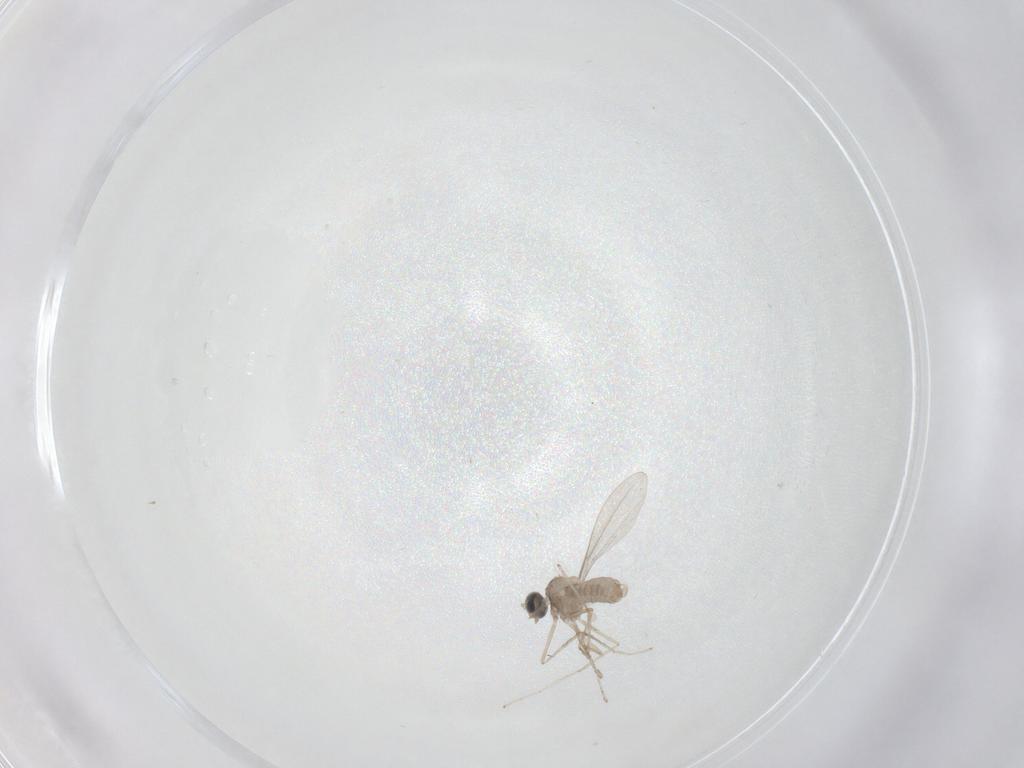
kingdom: Animalia
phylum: Arthropoda
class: Insecta
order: Diptera
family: Cecidomyiidae
